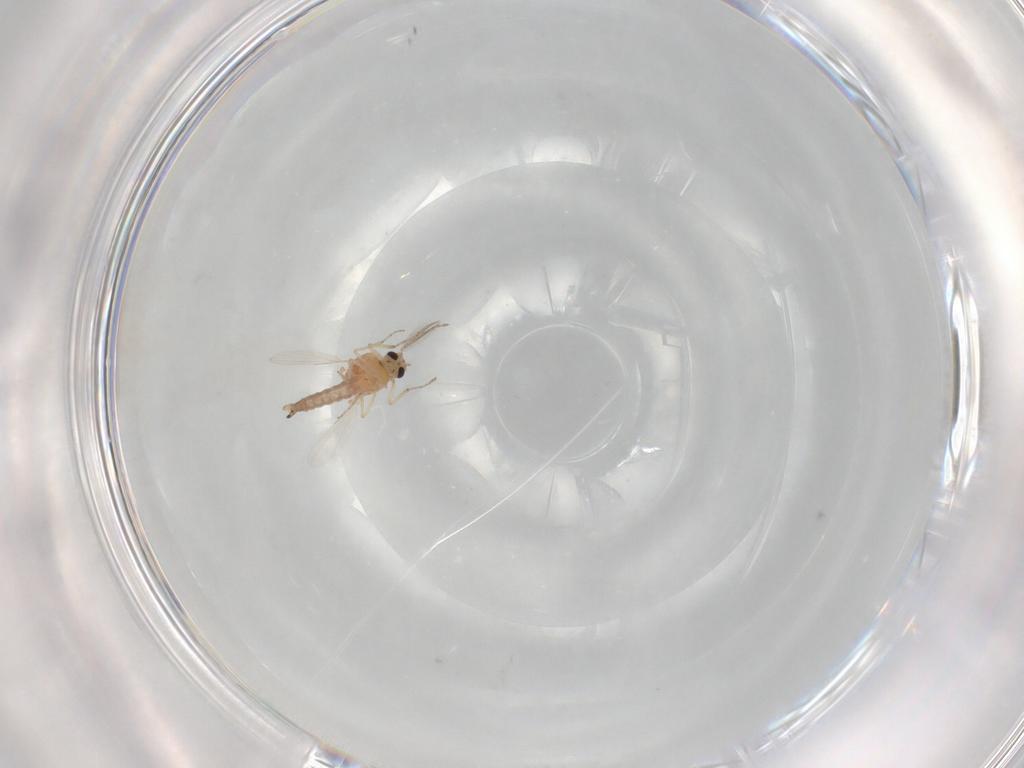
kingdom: Animalia
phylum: Arthropoda
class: Insecta
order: Diptera
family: Ceratopogonidae
